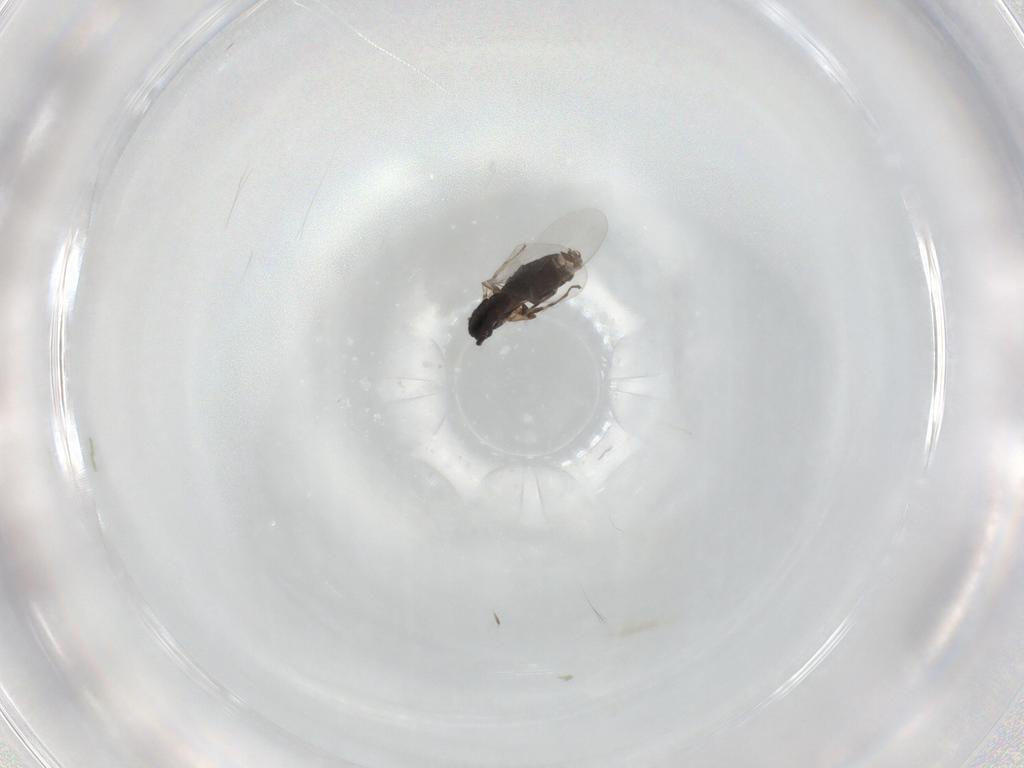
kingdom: Animalia
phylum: Arthropoda
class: Insecta
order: Diptera
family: Scatopsidae
